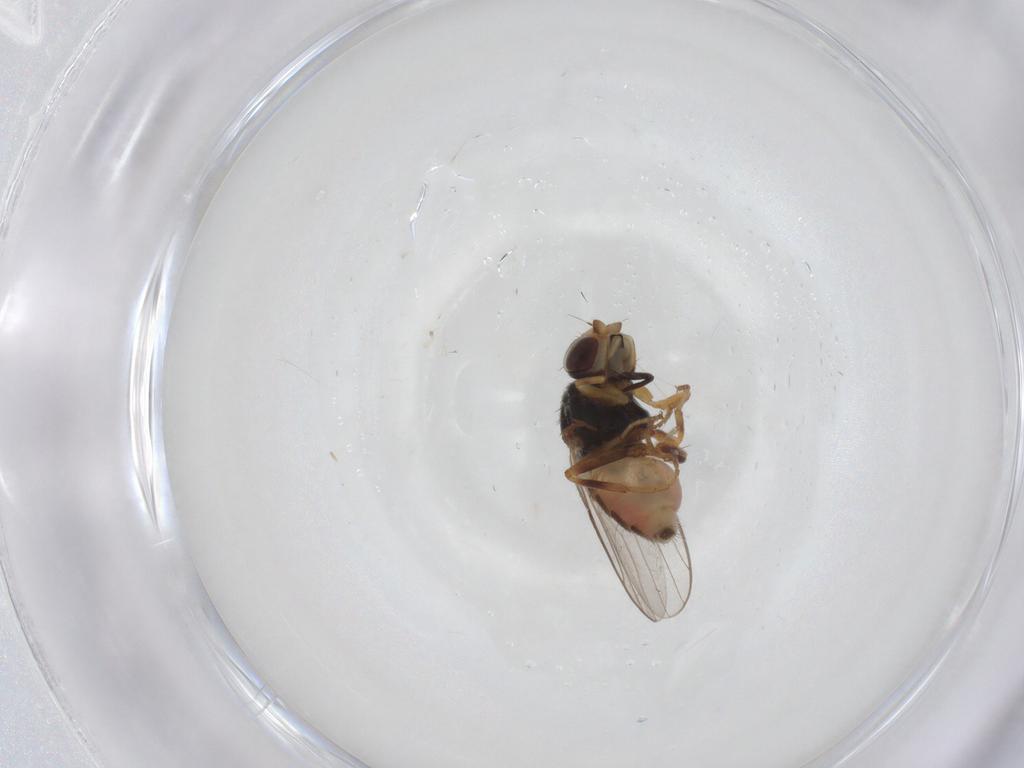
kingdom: Animalia
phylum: Arthropoda
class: Insecta
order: Diptera
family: Chloropidae
